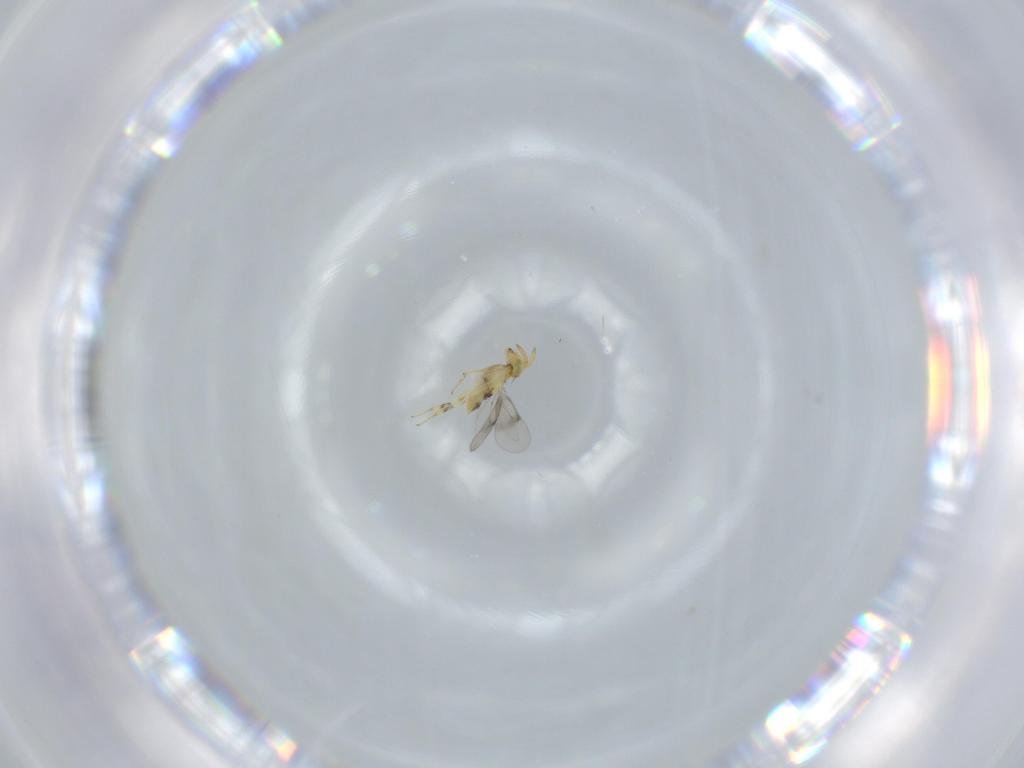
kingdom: Animalia
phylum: Arthropoda
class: Insecta
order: Hymenoptera
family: Aphelinidae
